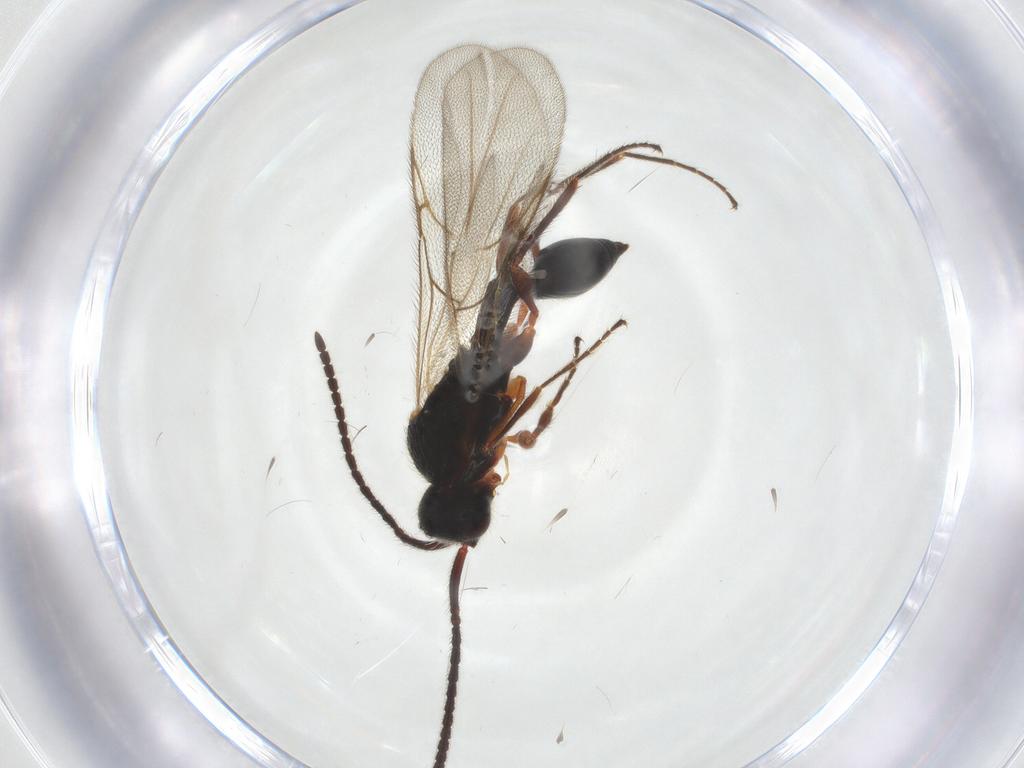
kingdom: Animalia
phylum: Arthropoda
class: Insecta
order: Hymenoptera
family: Diapriidae
